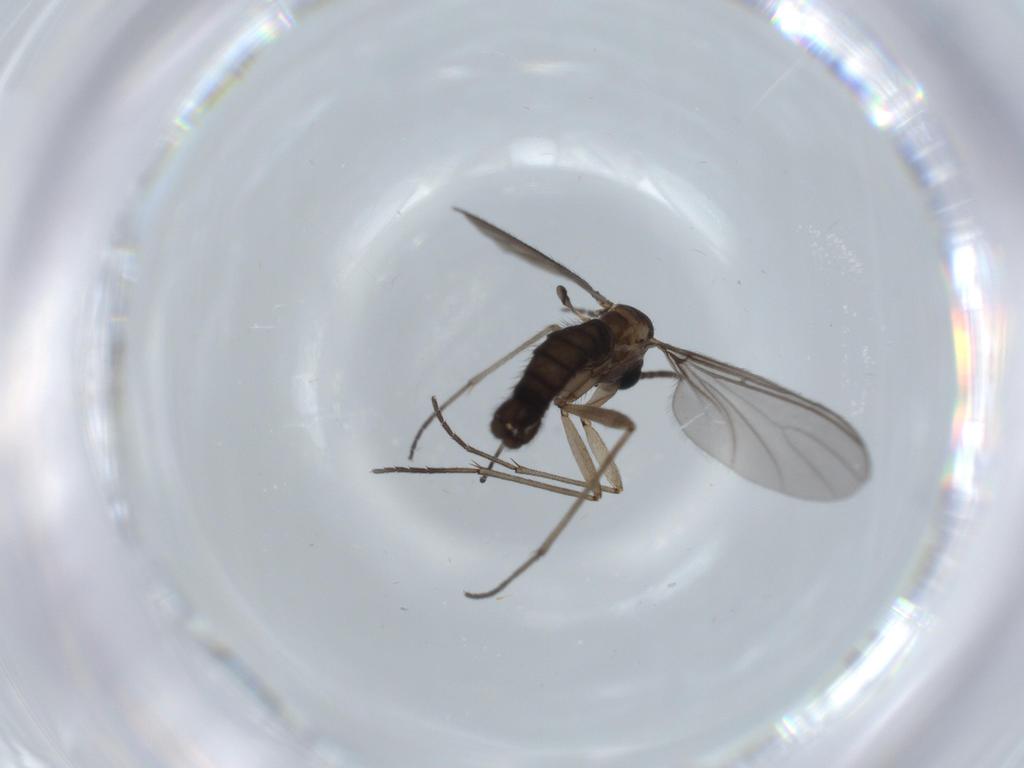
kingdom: Animalia
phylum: Arthropoda
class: Insecta
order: Diptera
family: Sciaridae
